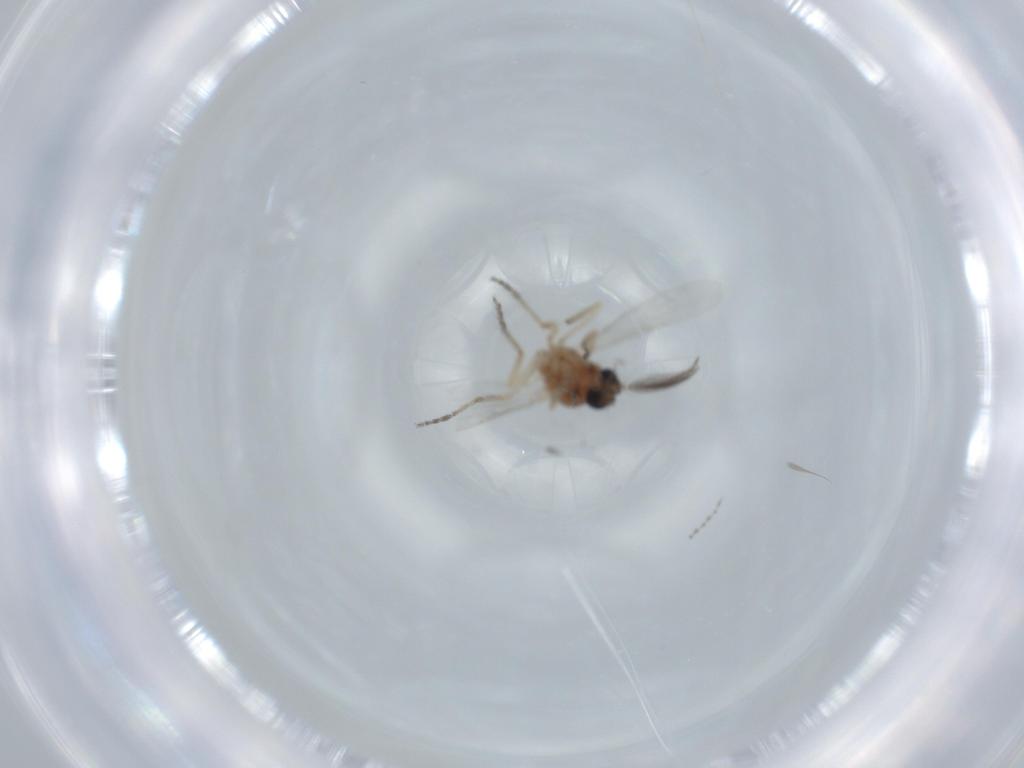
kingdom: Animalia
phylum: Arthropoda
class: Insecta
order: Diptera
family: Ceratopogonidae
